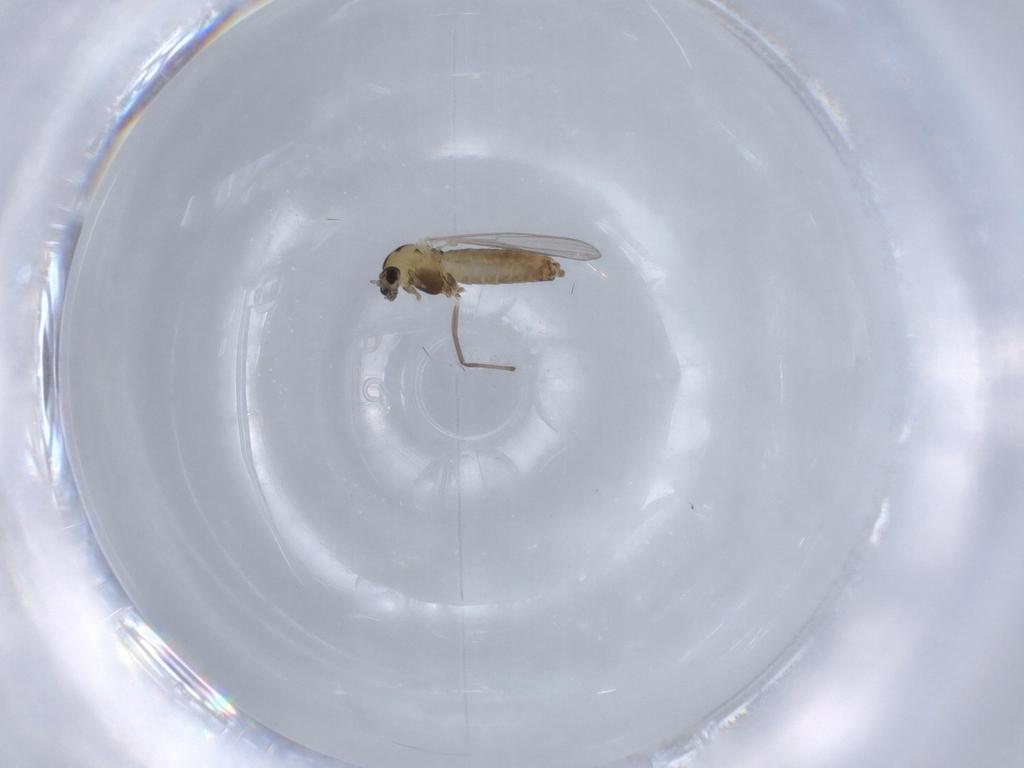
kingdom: Animalia
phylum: Arthropoda
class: Insecta
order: Diptera
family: Chironomidae
